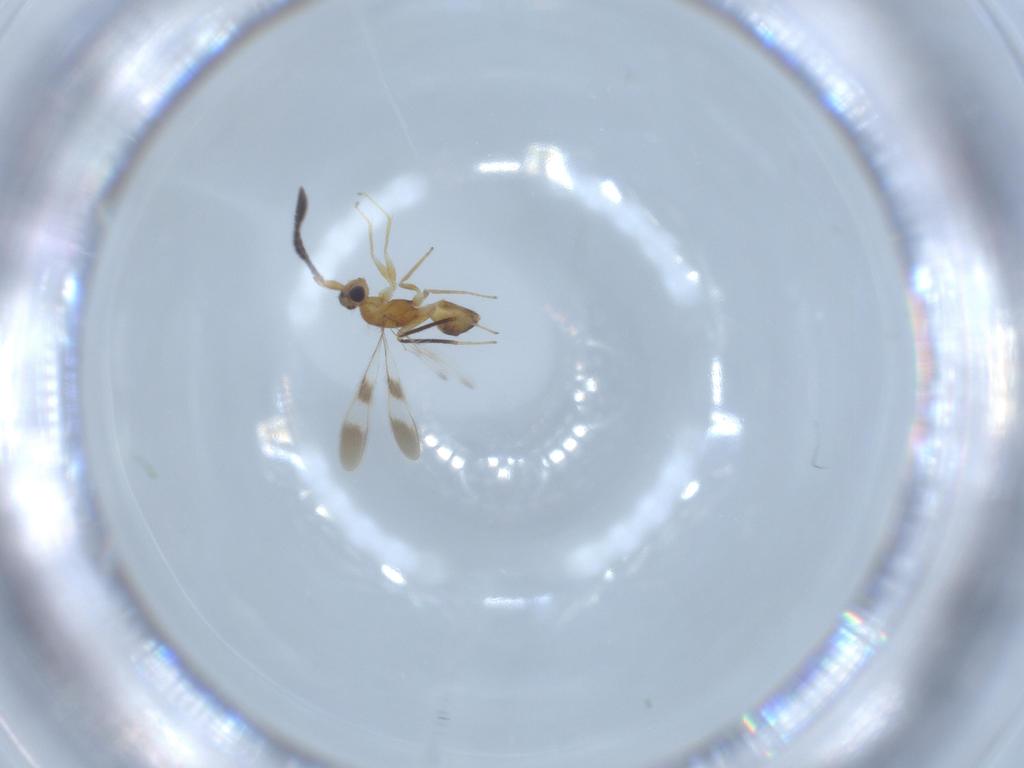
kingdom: Animalia
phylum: Arthropoda
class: Insecta
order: Hymenoptera
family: Mymaridae
